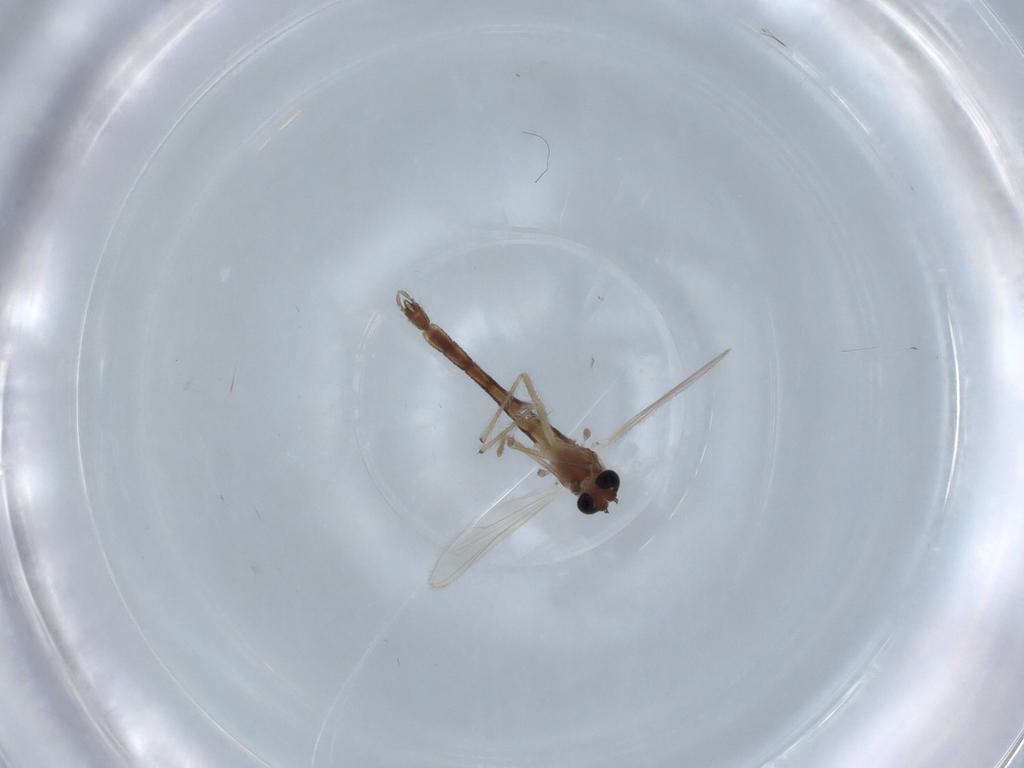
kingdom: Animalia
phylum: Arthropoda
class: Insecta
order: Diptera
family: Chironomidae
